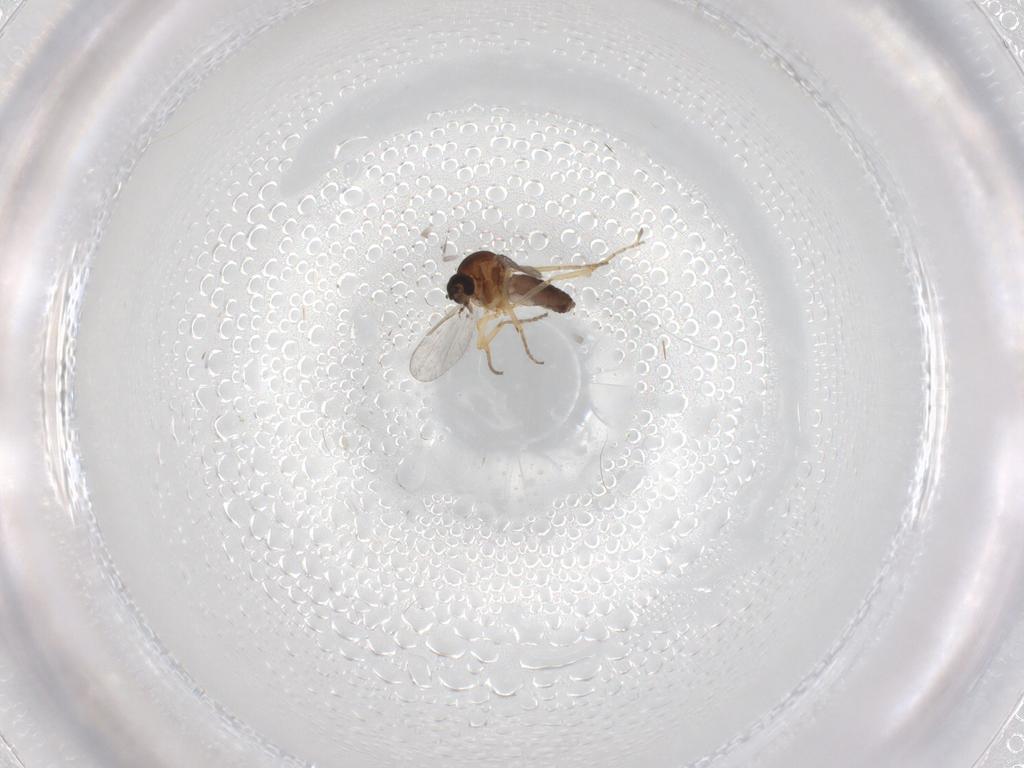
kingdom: Animalia
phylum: Arthropoda
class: Insecta
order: Diptera
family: Ceratopogonidae
